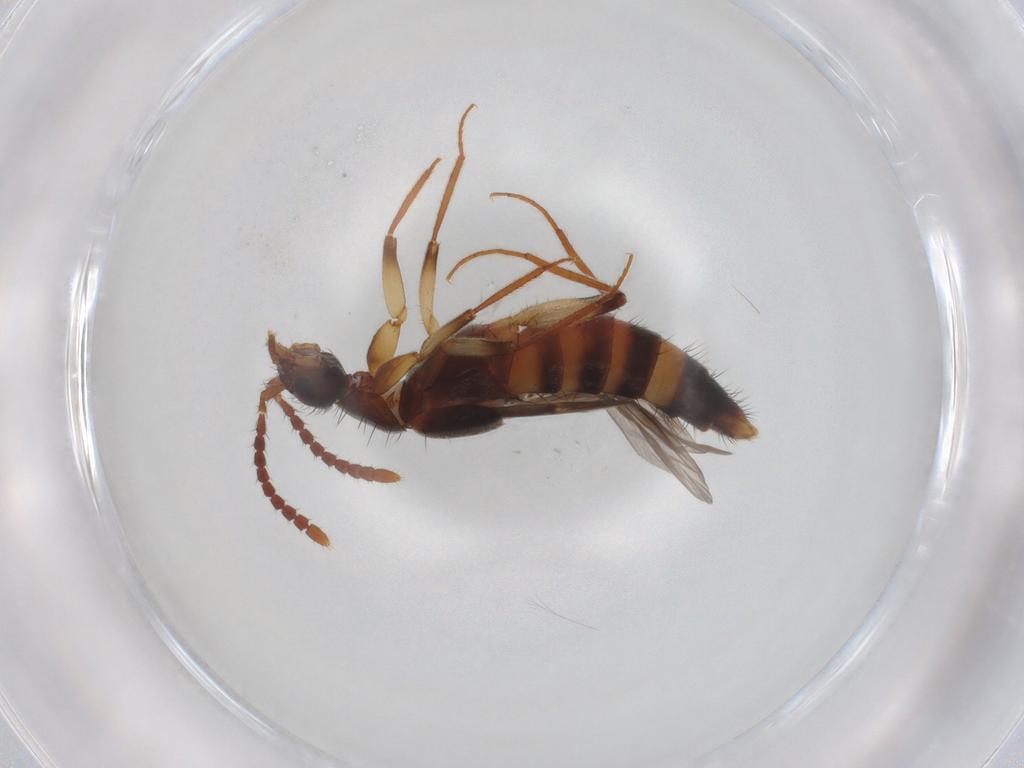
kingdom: Animalia
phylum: Arthropoda
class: Insecta
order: Coleoptera
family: Staphylinidae
